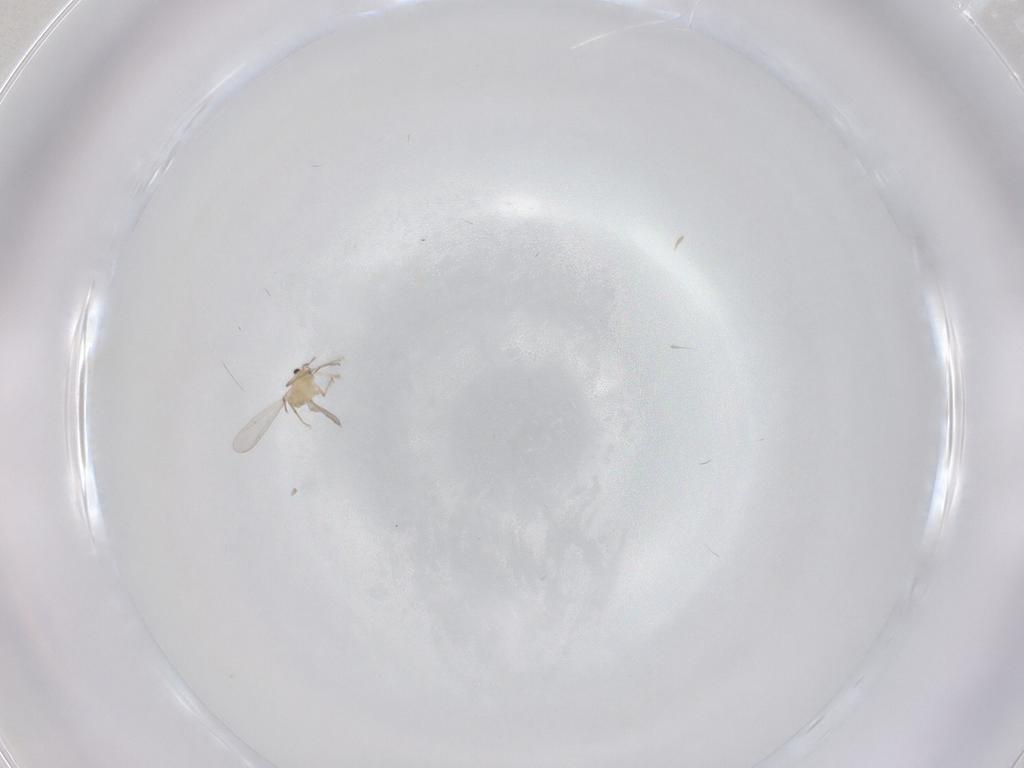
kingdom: Animalia
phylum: Arthropoda
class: Insecta
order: Diptera
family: Chironomidae
